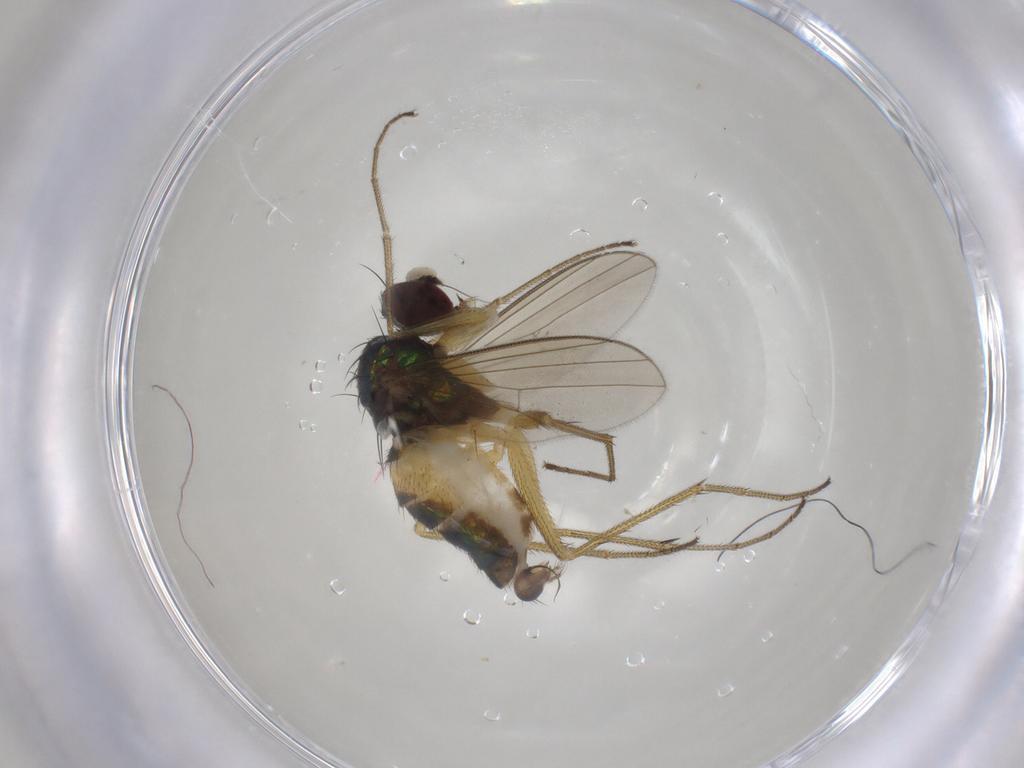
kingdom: Animalia
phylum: Arthropoda
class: Insecta
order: Diptera
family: Dolichopodidae
